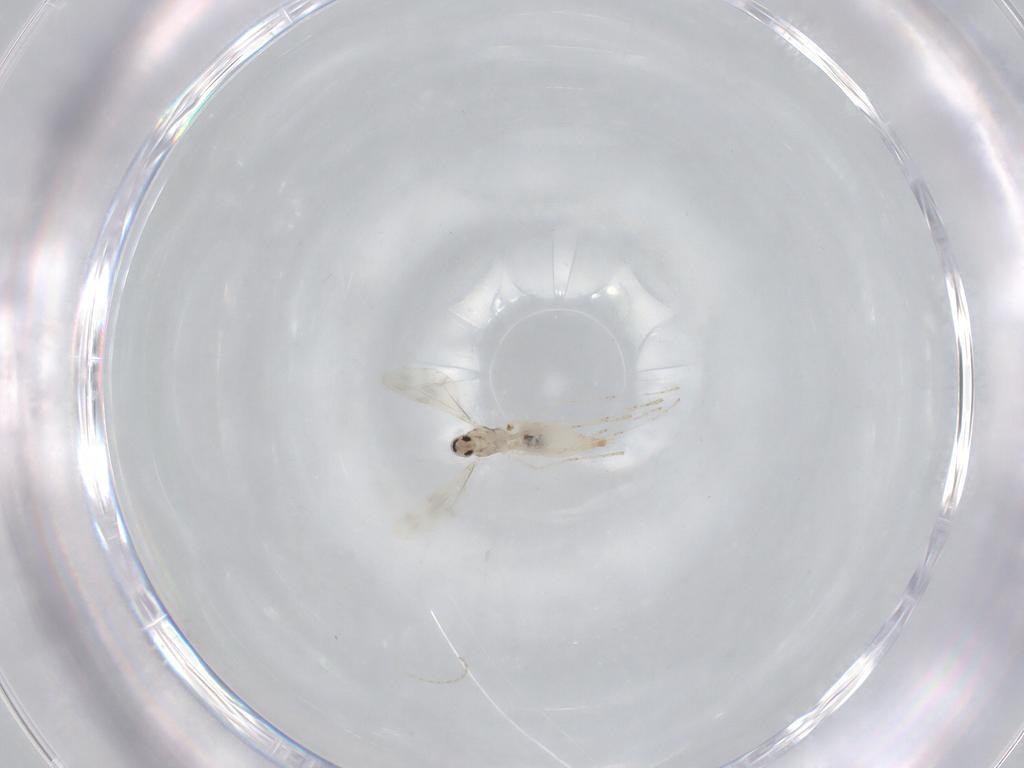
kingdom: Animalia
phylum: Arthropoda
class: Insecta
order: Diptera
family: Cecidomyiidae
